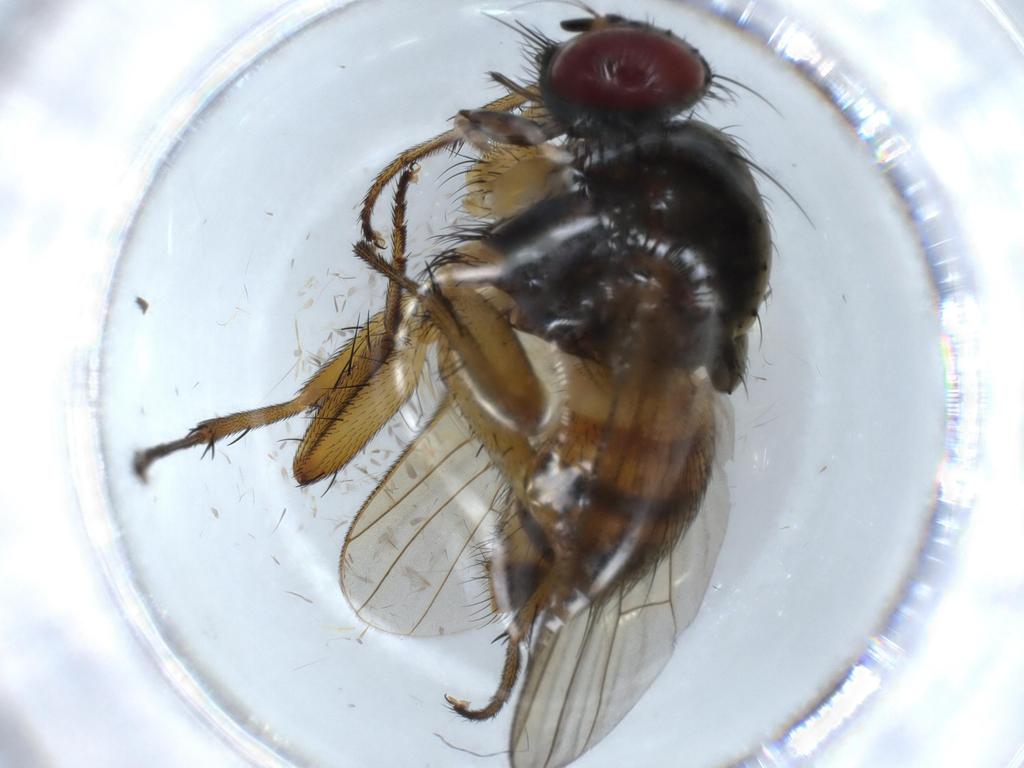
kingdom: Animalia
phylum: Arthropoda
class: Insecta
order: Diptera
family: Muscidae
